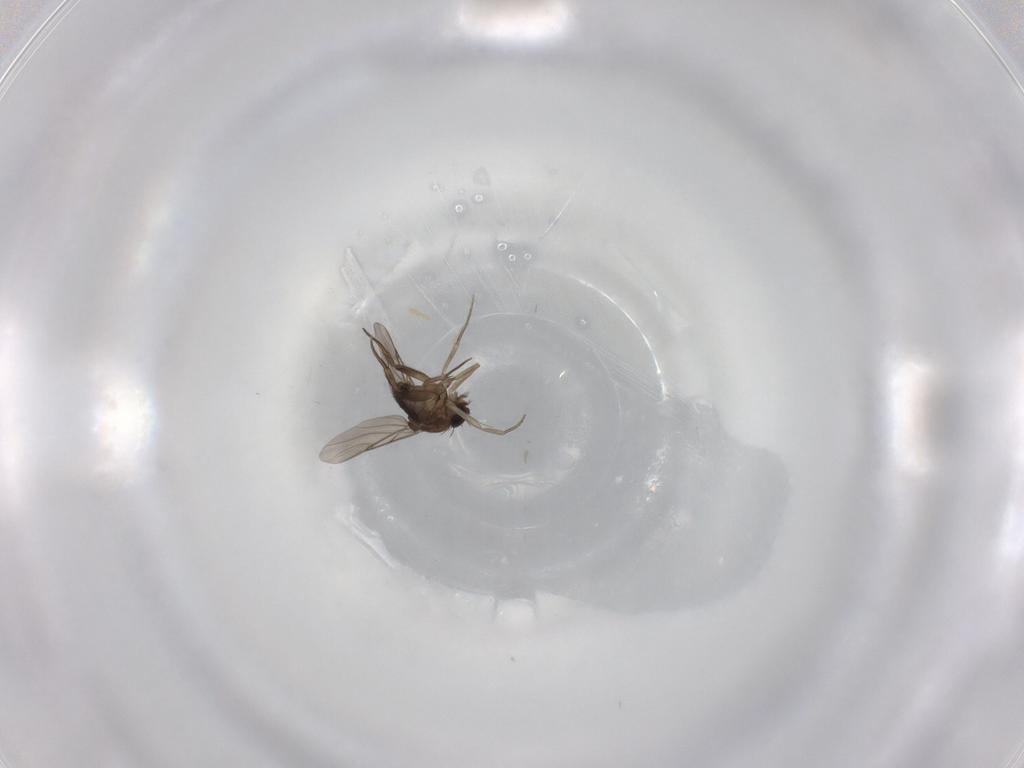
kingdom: Animalia
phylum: Arthropoda
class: Insecta
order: Diptera
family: Phoridae
